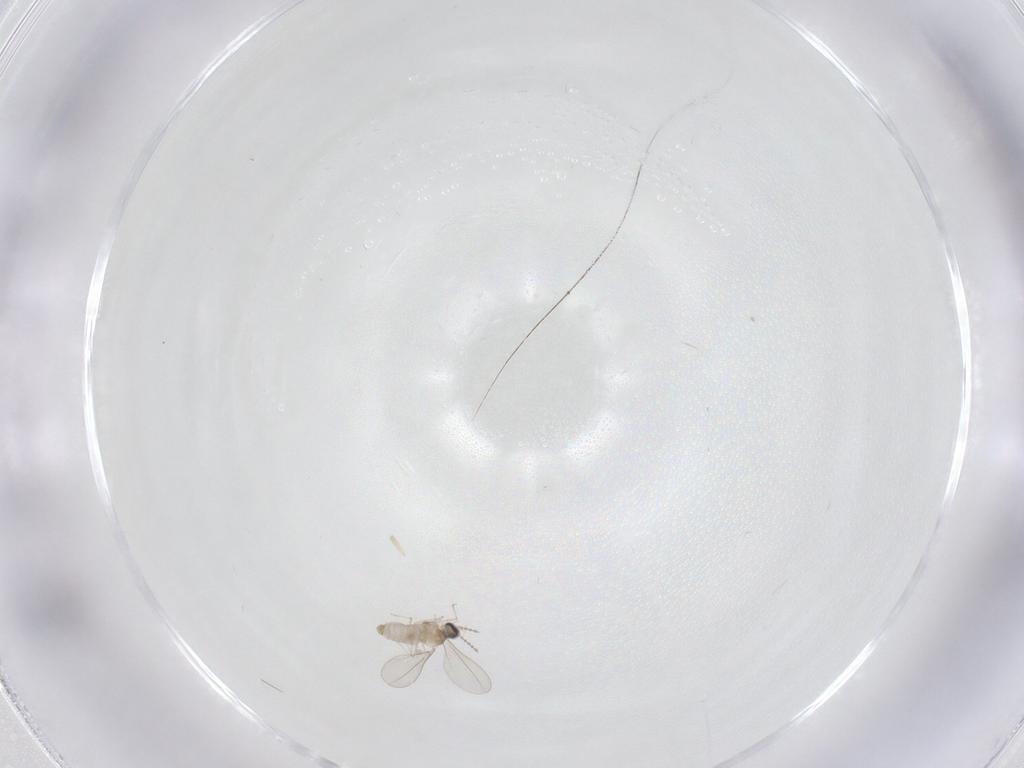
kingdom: Animalia
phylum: Arthropoda
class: Insecta
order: Diptera
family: Cecidomyiidae
